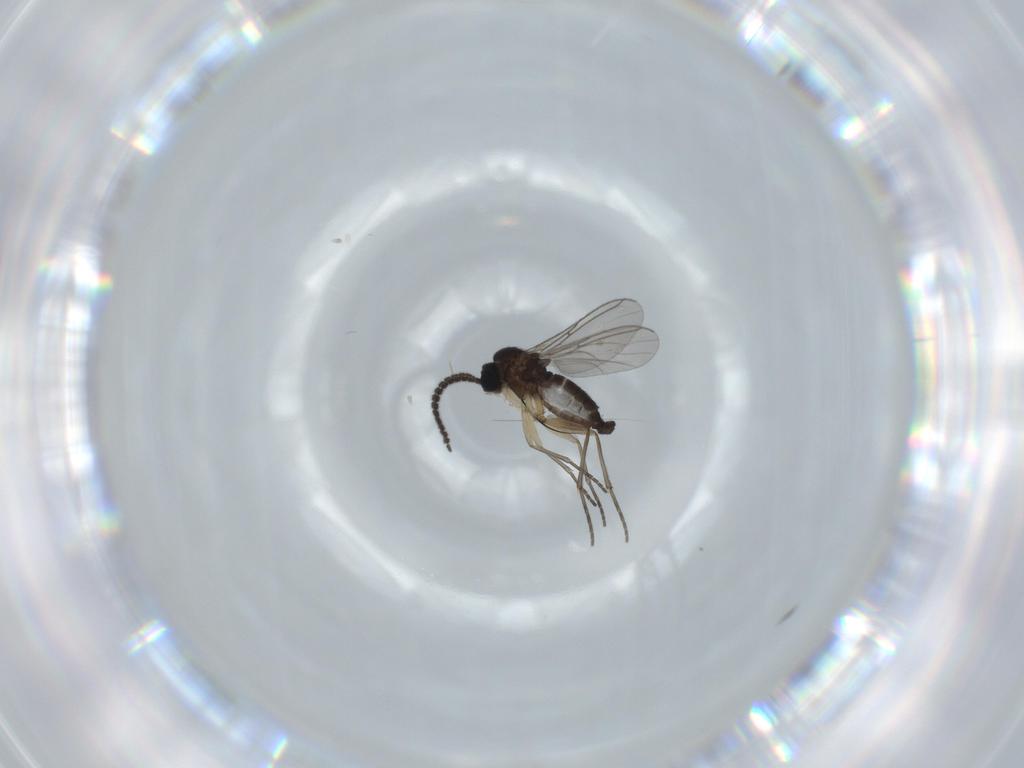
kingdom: Animalia
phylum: Arthropoda
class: Insecta
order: Diptera
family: Sciaridae
